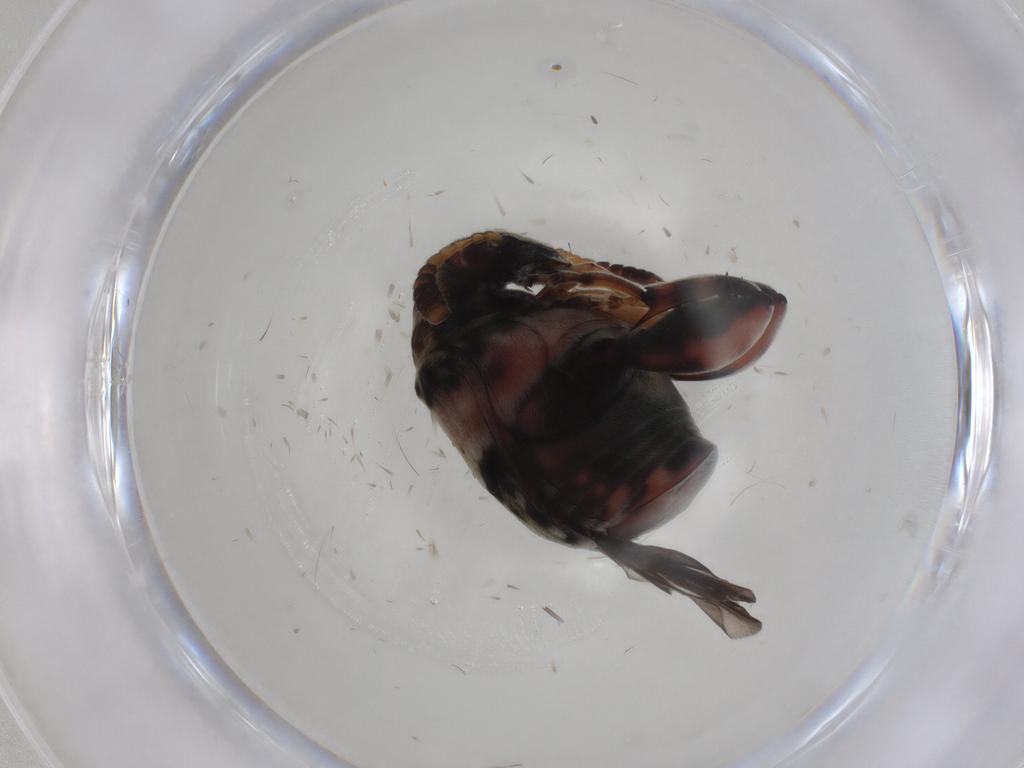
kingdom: Animalia
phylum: Arthropoda
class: Insecta
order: Coleoptera
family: Chrysomelidae
